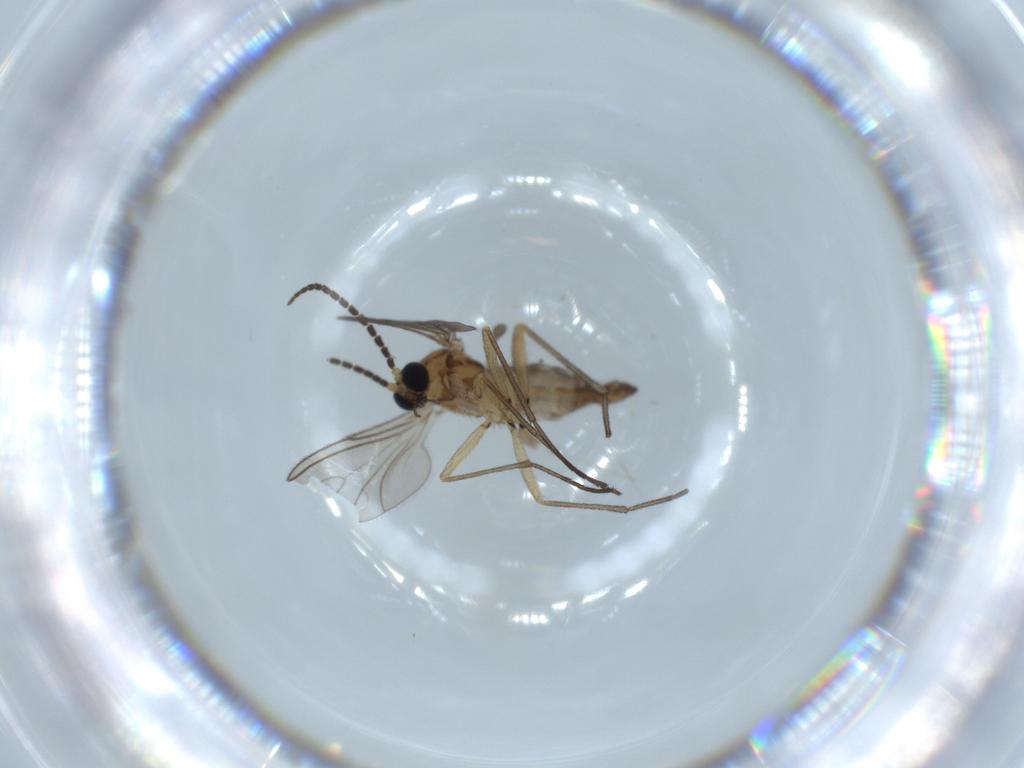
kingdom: Animalia
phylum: Arthropoda
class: Insecta
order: Diptera
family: Sciaridae
